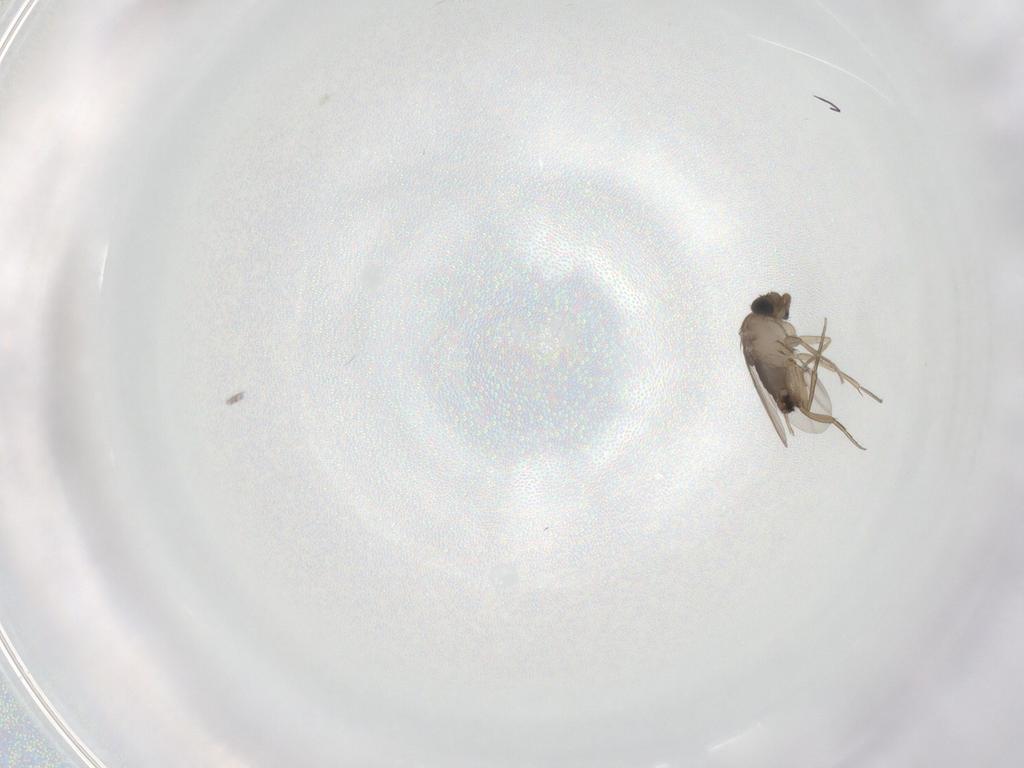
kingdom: Animalia
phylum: Arthropoda
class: Insecta
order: Diptera
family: Phoridae
